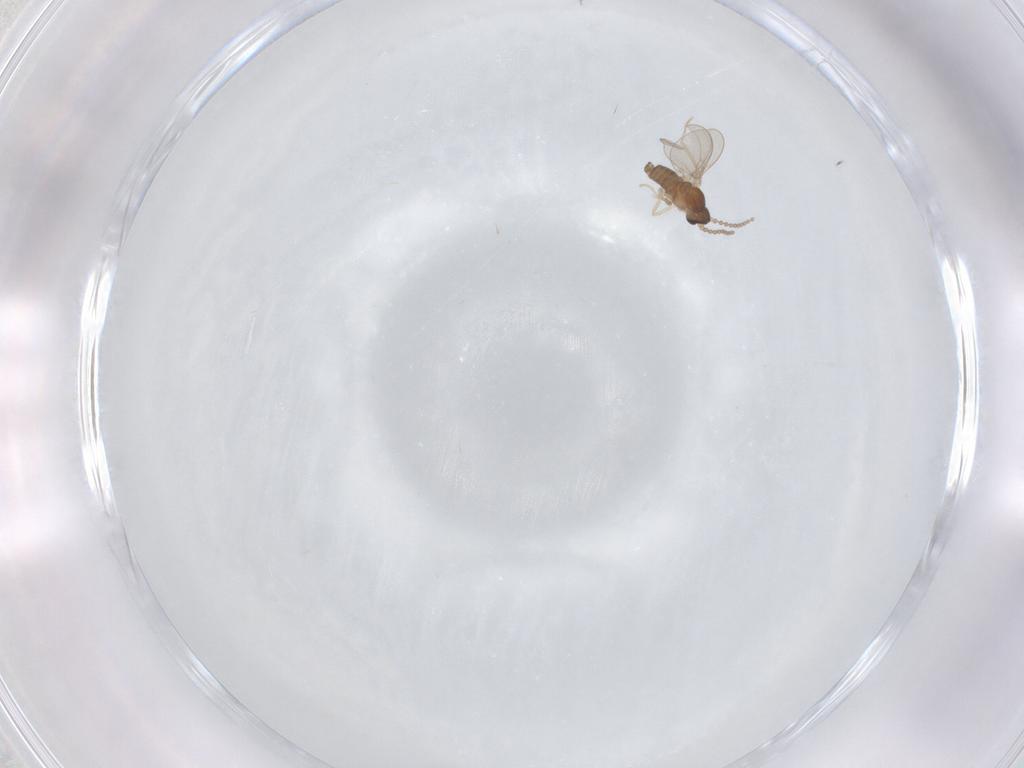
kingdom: Animalia
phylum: Arthropoda
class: Insecta
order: Diptera
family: Cecidomyiidae
